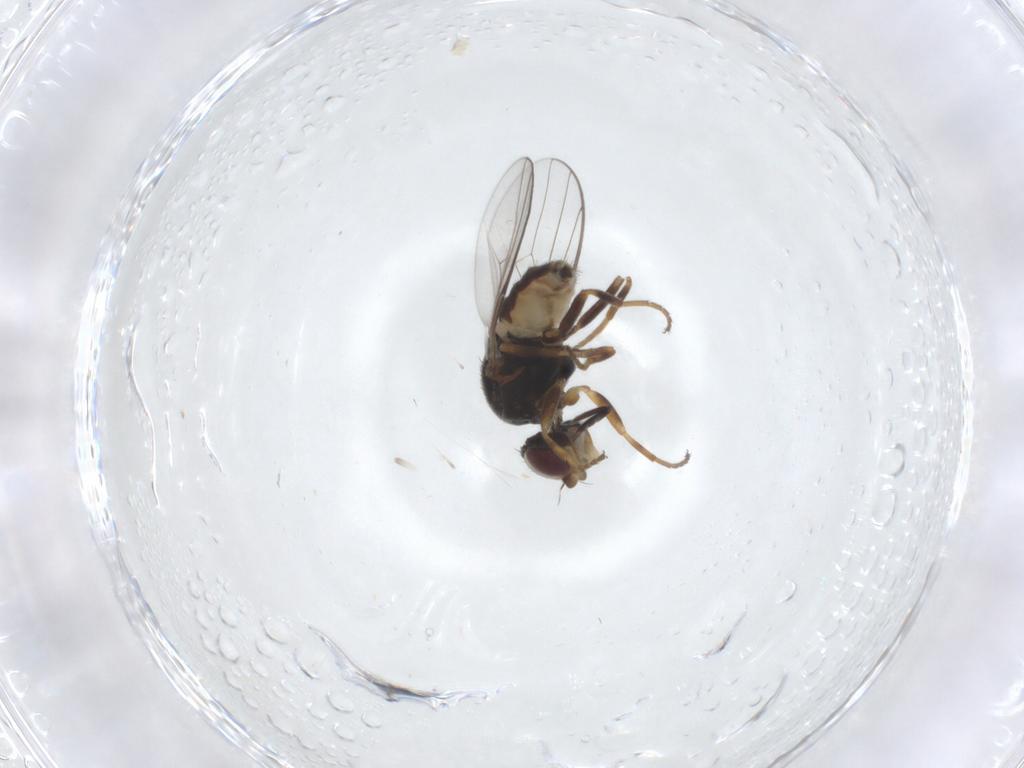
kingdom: Animalia
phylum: Arthropoda
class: Insecta
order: Diptera
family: Chloropidae
